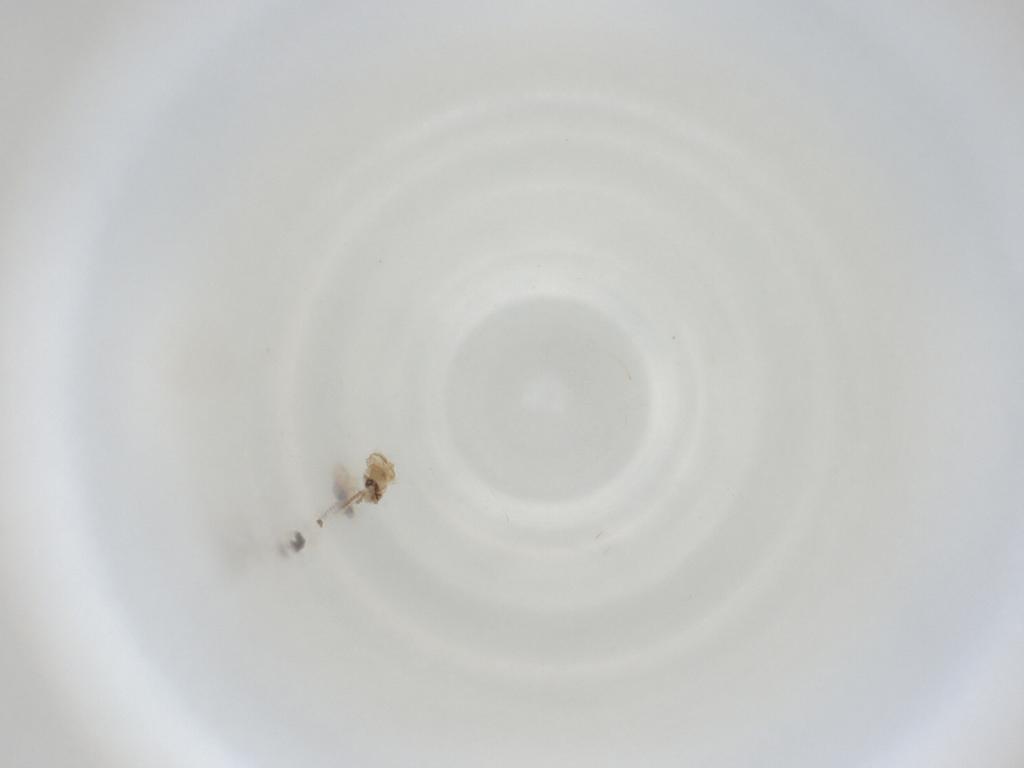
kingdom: Animalia
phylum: Arthropoda
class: Insecta
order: Diptera
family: Cecidomyiidae
